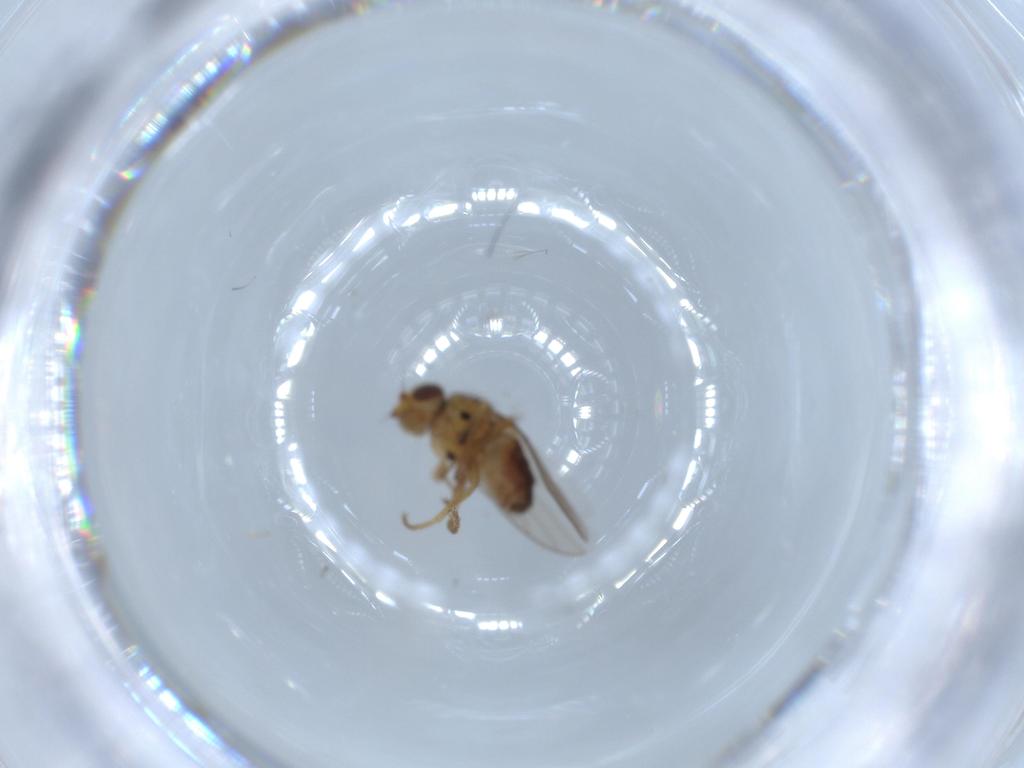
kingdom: Animalia
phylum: Arthropoda
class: Insecta
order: Diptera
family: Chloropidae
